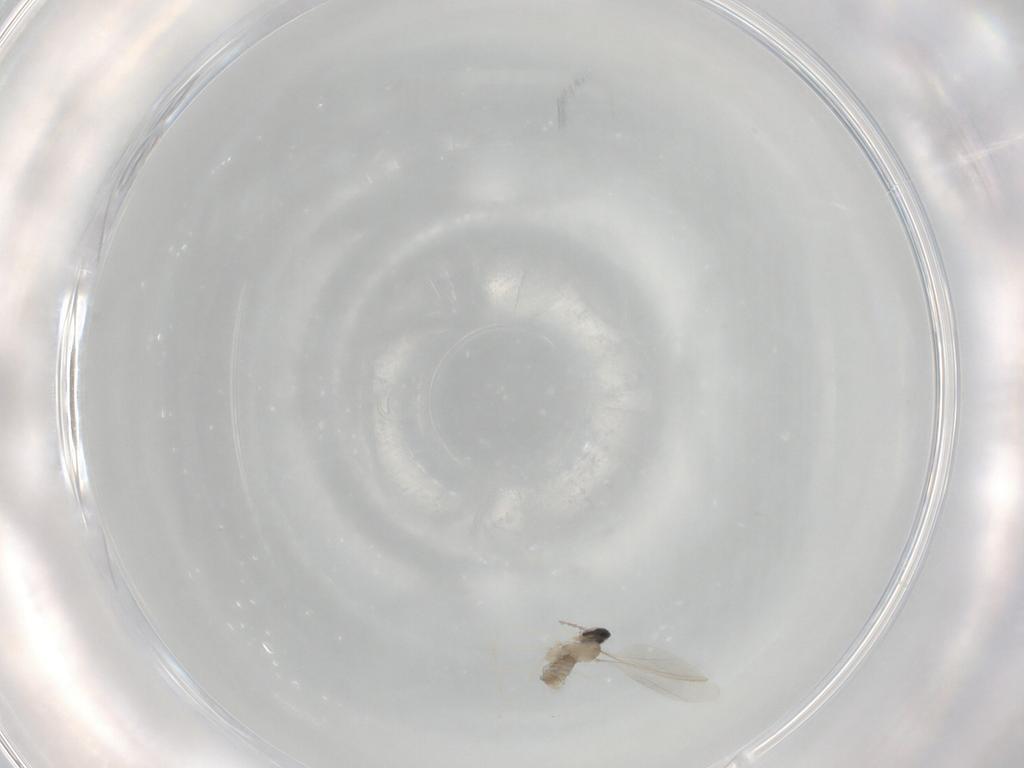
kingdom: Animalia
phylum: Arthropoda
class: Insecta
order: Diptera
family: Cecidomyiidae
